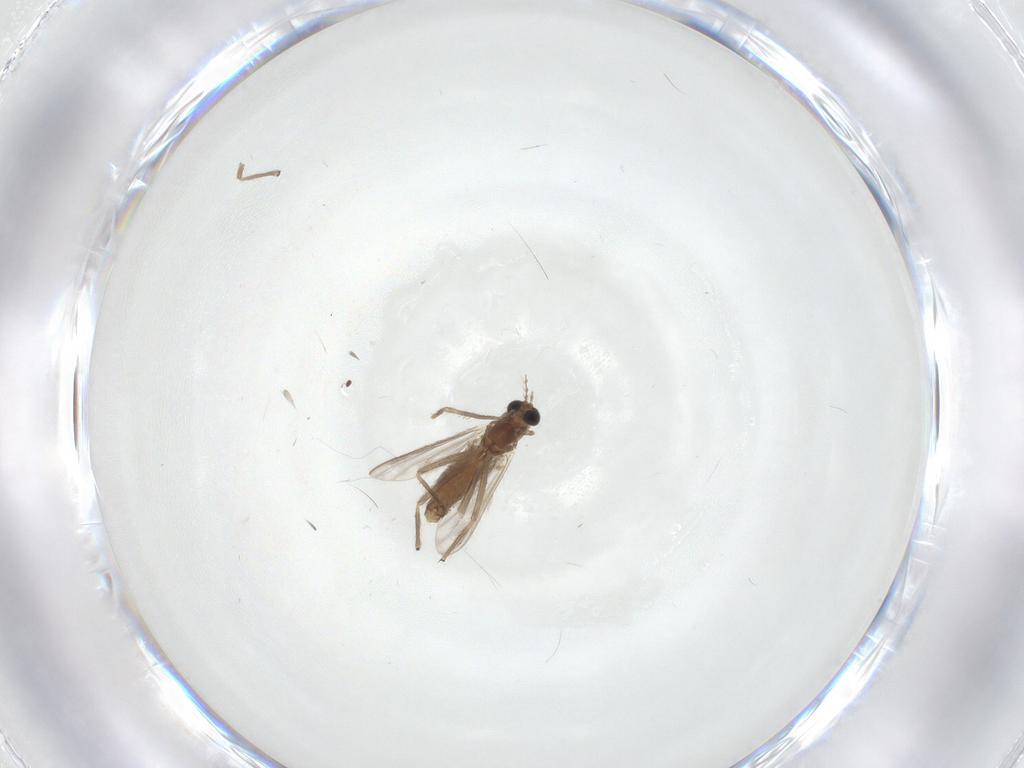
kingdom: Animalia
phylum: Arthropoda
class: Insecta
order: Diptera
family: Chironomidae
